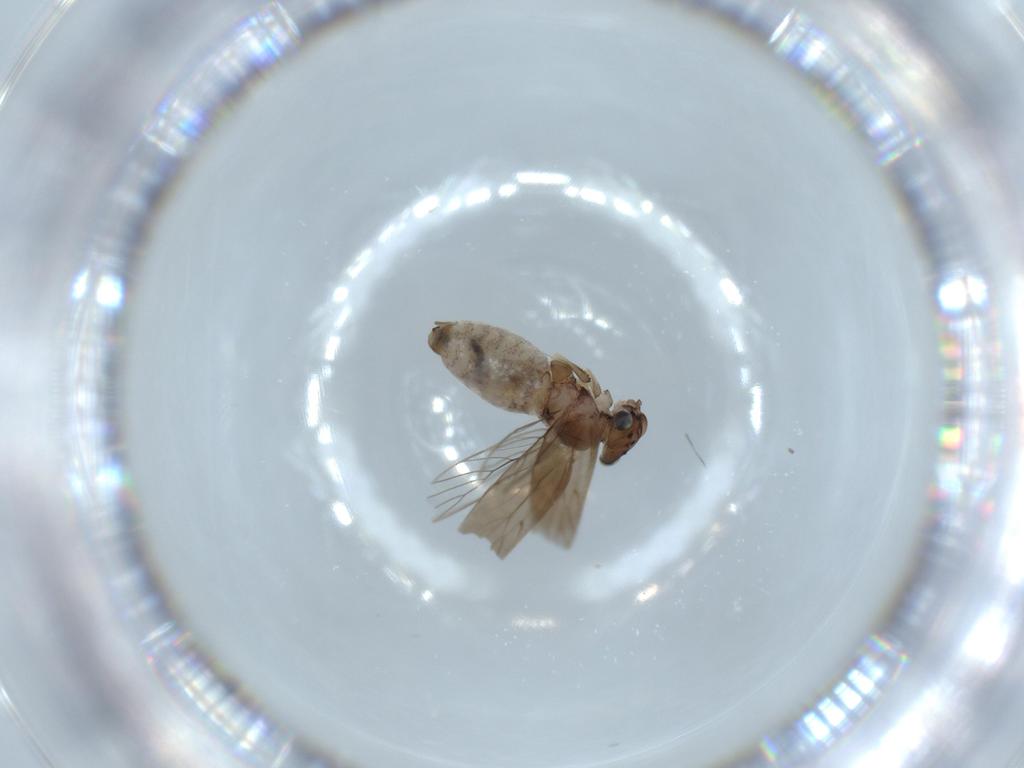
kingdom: Animalia
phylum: Arthropoda
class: Insecta
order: Psocodea
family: Lepidopsocidae
